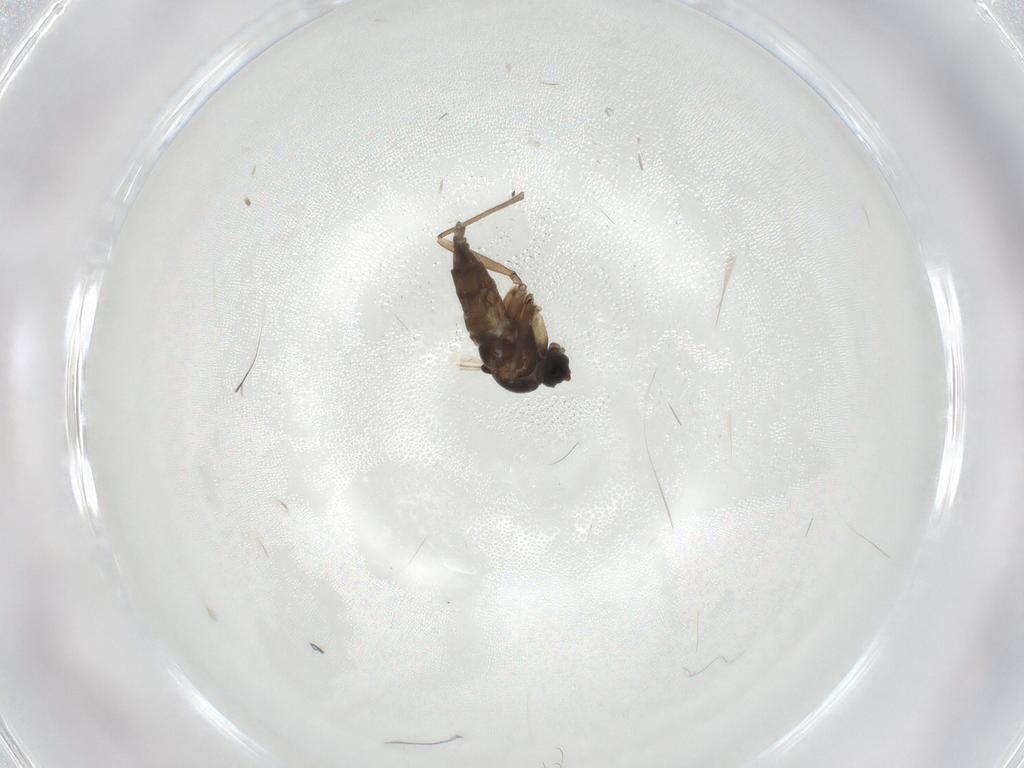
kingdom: Animalia
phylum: Arthropoda
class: Insecta
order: Diptera
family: Sciaridae
